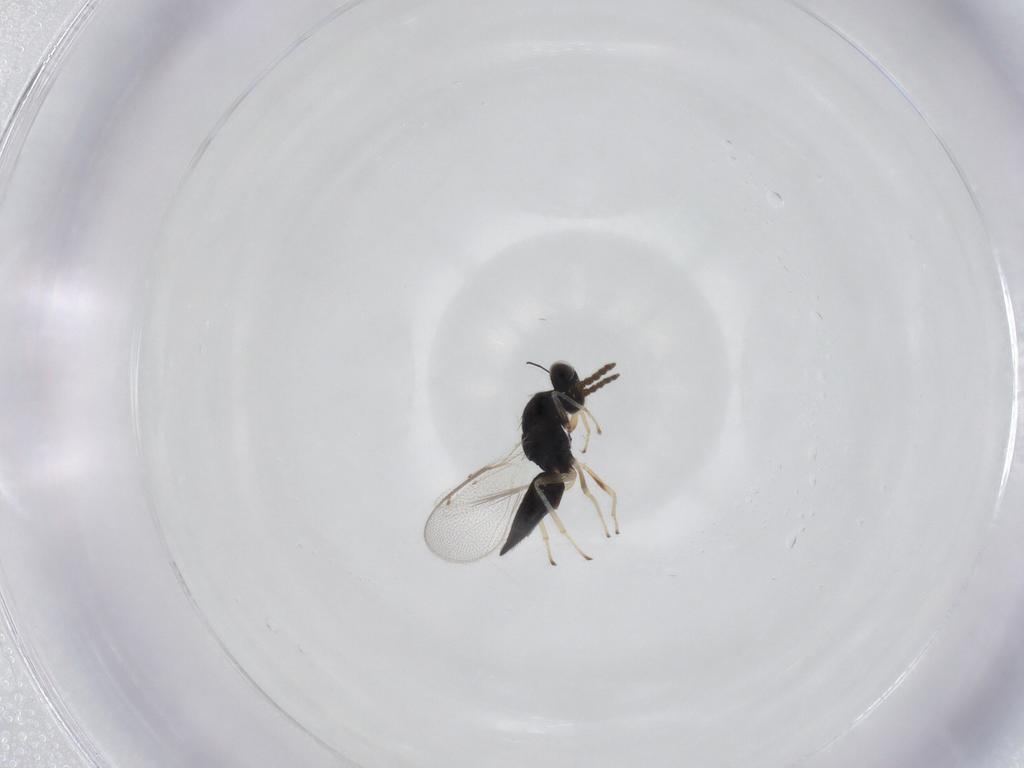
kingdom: Animalia
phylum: Arthropoda
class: Insecta
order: Hymenoptera
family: Eulophidae
